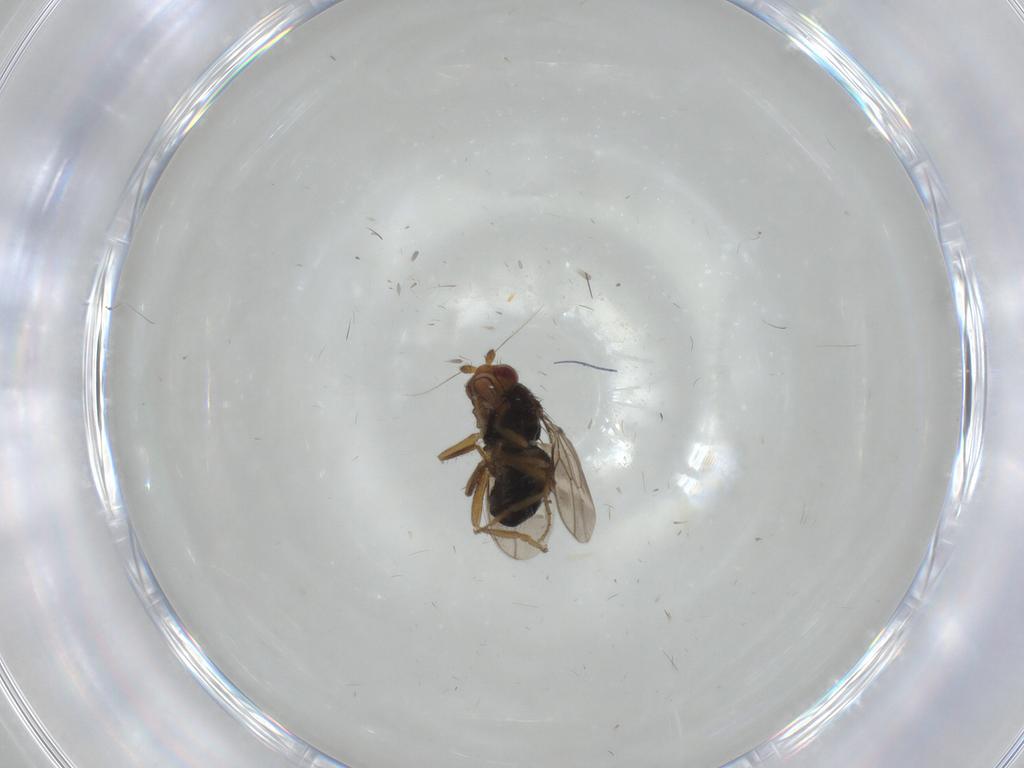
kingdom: Animalia
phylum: Arthropoda
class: Insecta
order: Diptera
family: Sphaeroceridae
